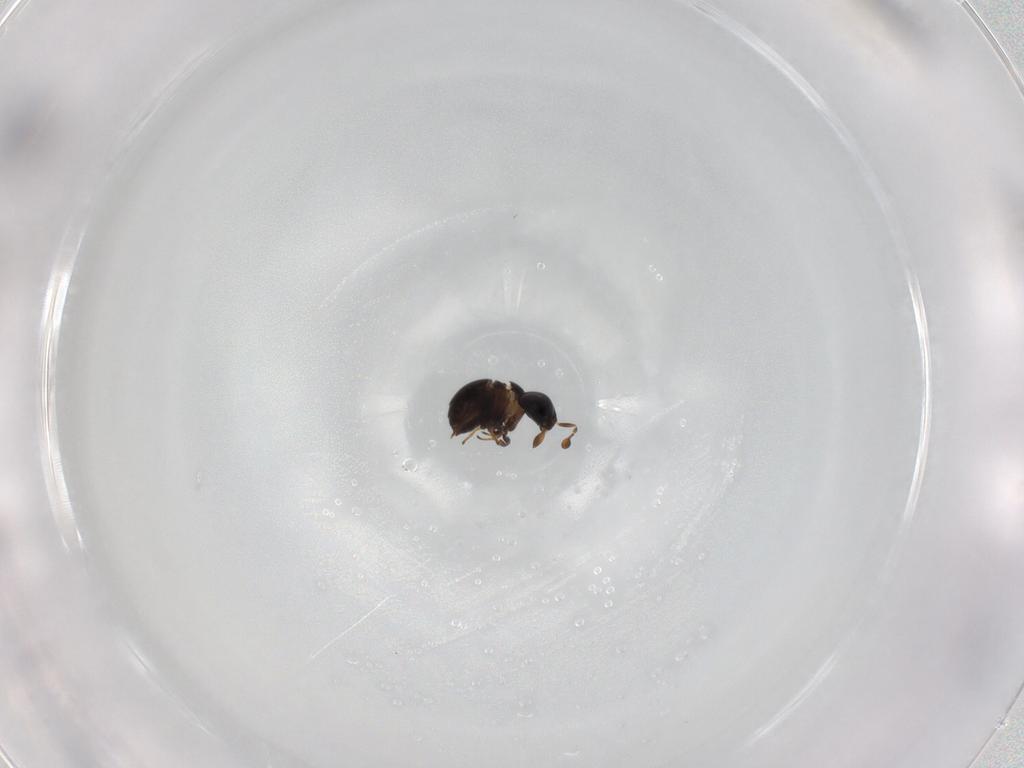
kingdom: Animalia
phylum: Arthropoda
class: Insecta
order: Hymenoptera
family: Scelionidae
